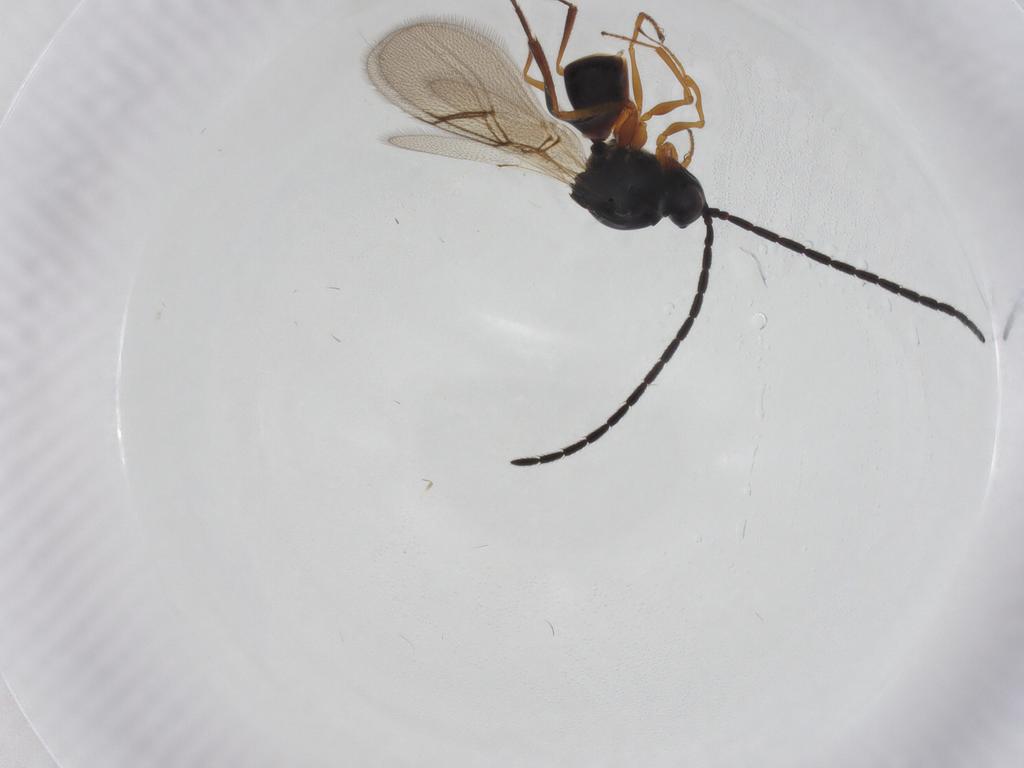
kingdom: Animalia
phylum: Arthropoda
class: Insecta
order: Hymenoptera
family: Figitidae
